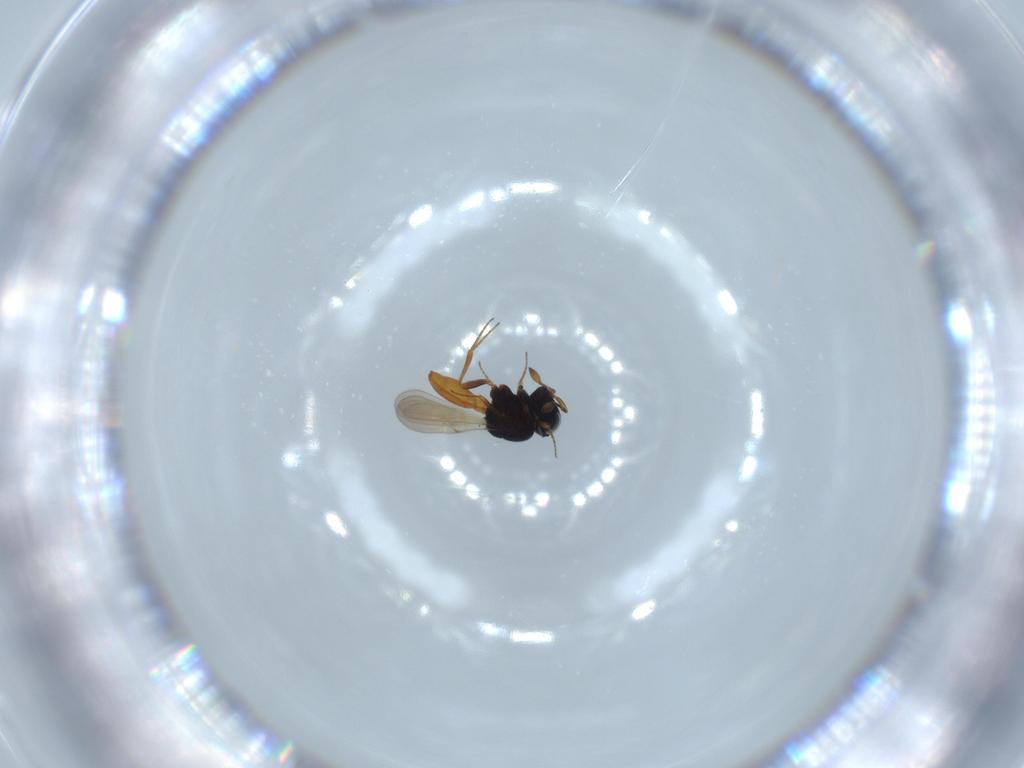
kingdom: Animalia
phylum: Arthropoda
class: Insecta
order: Hymenoptera
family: Scelionidae
